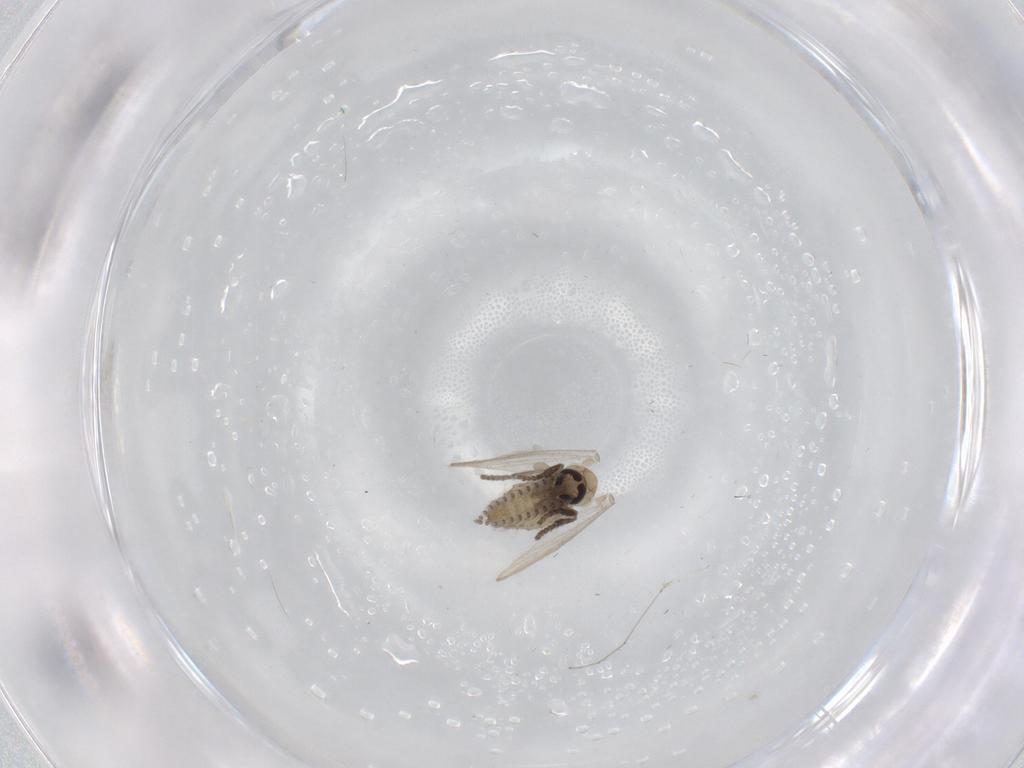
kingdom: Animalia
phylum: Arthropoda
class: Insecta
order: Diptera
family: Psychodidae
